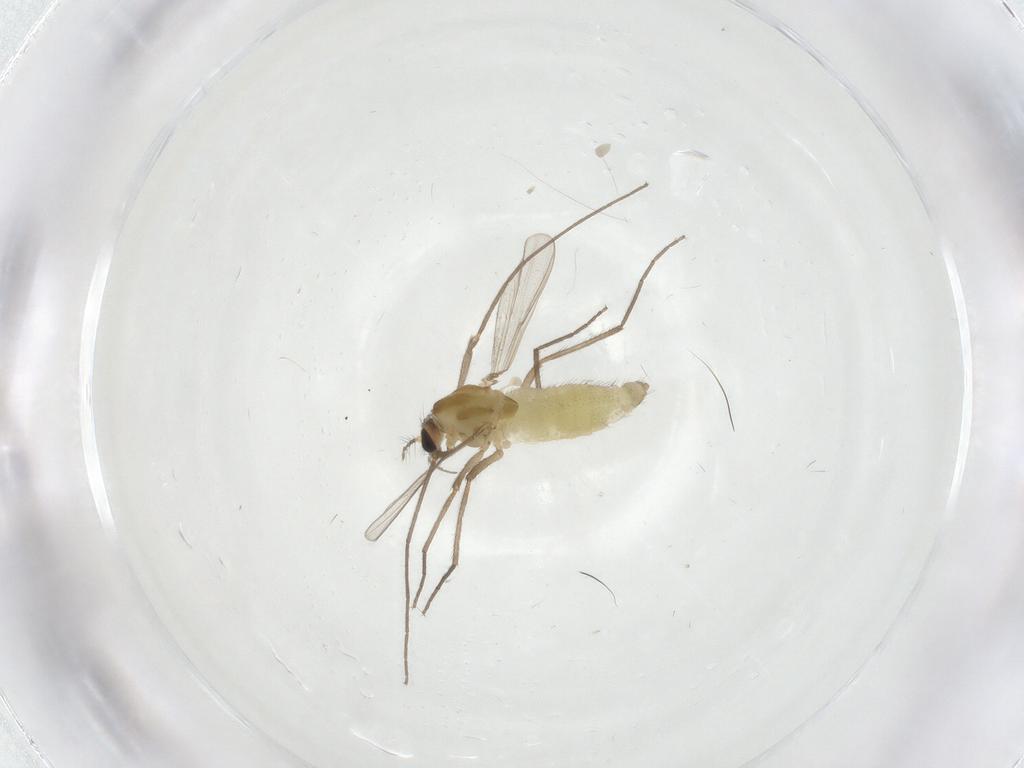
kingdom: Animalia
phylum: Arthropoda
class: Insecta
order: Diptera
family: Chironomidae
